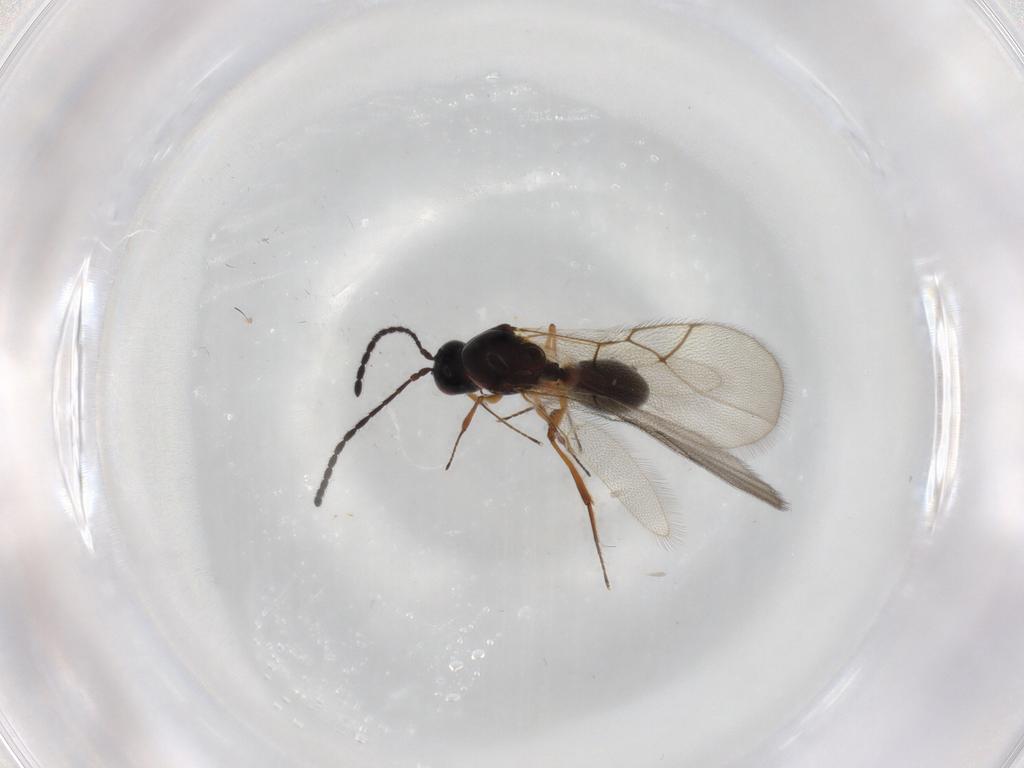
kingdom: Animalia
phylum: Arthropoda
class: Insecta
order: Hymenoptera
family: Figitidae
